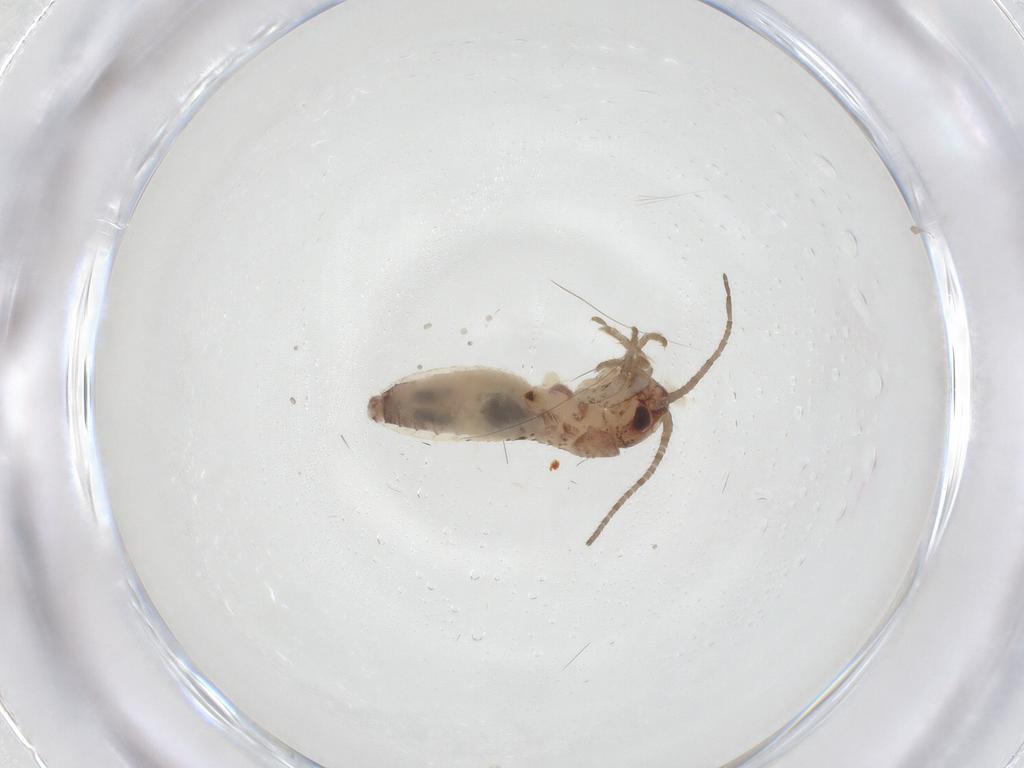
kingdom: Animalia
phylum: Arthropoda
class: Insecta
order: Orthoptera
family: Gryllidae
